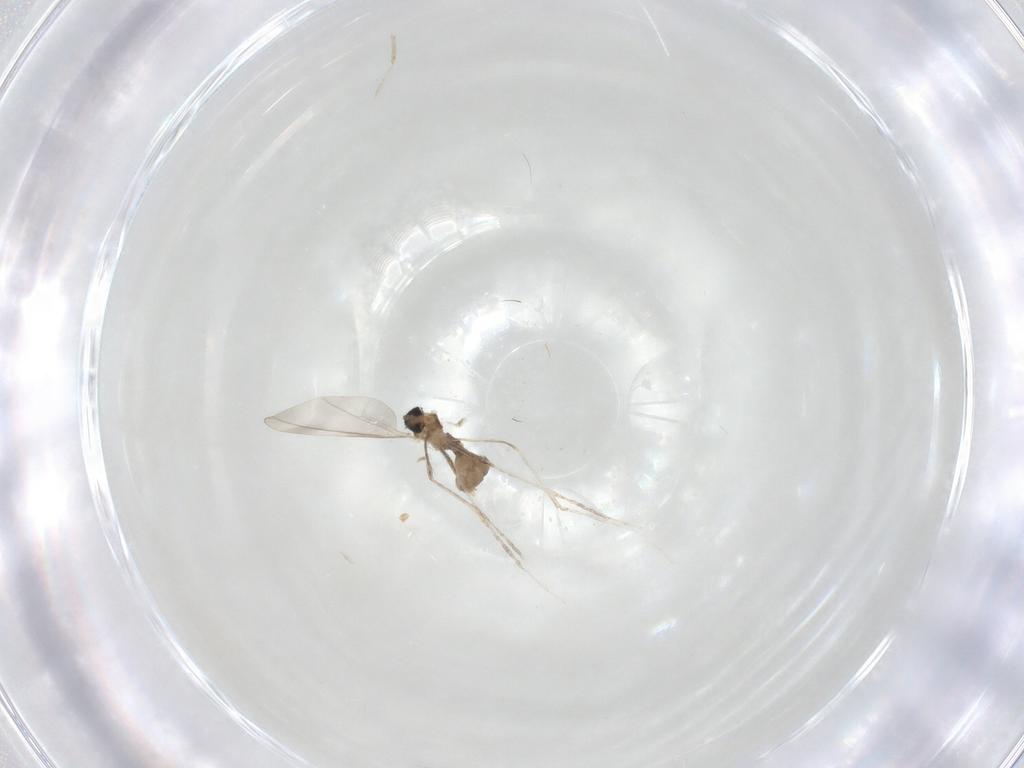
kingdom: Animalia
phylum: Arthropoda
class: Insecta
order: Diptera
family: Cecidomyiidae
